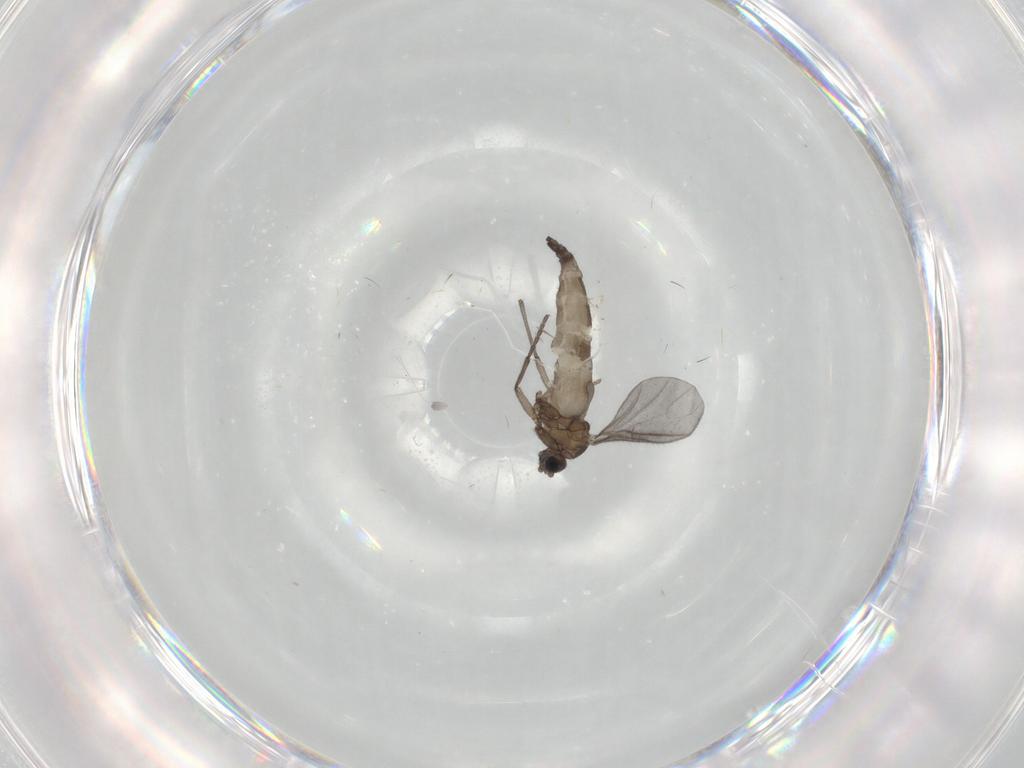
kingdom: Animalia
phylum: Arthropoda
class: Insecta
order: Diptera
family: Sciaridae
